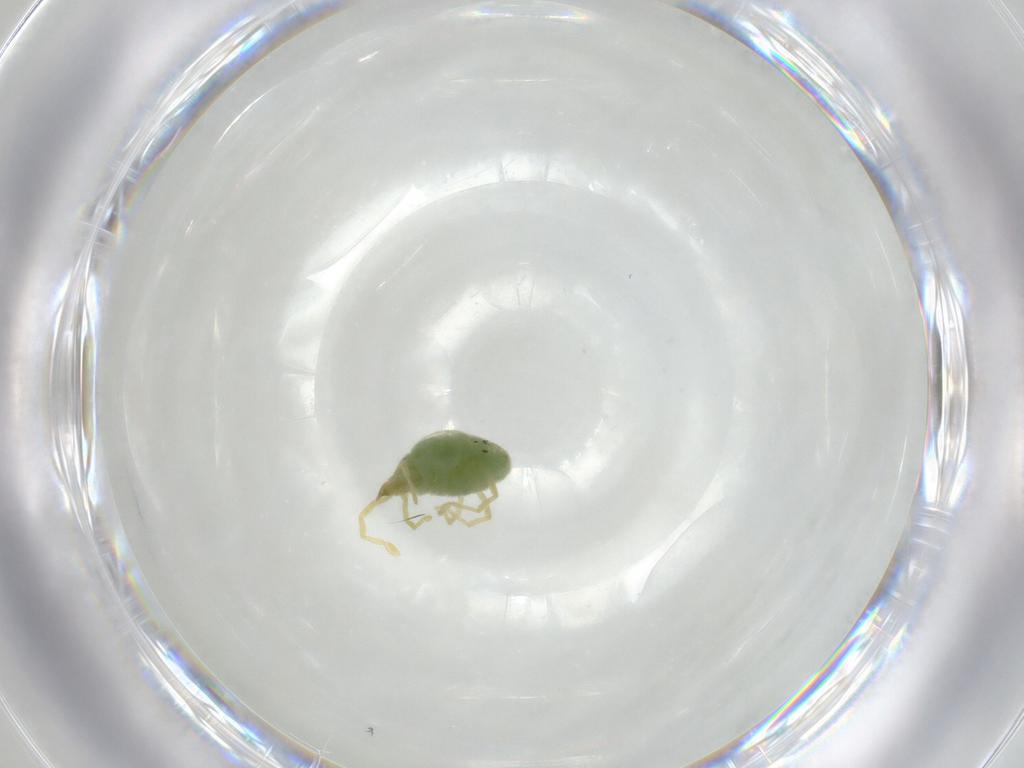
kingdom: Animalia
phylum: Arthropoda
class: Arachnida
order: Trombidiformes
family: Erythraeidae
